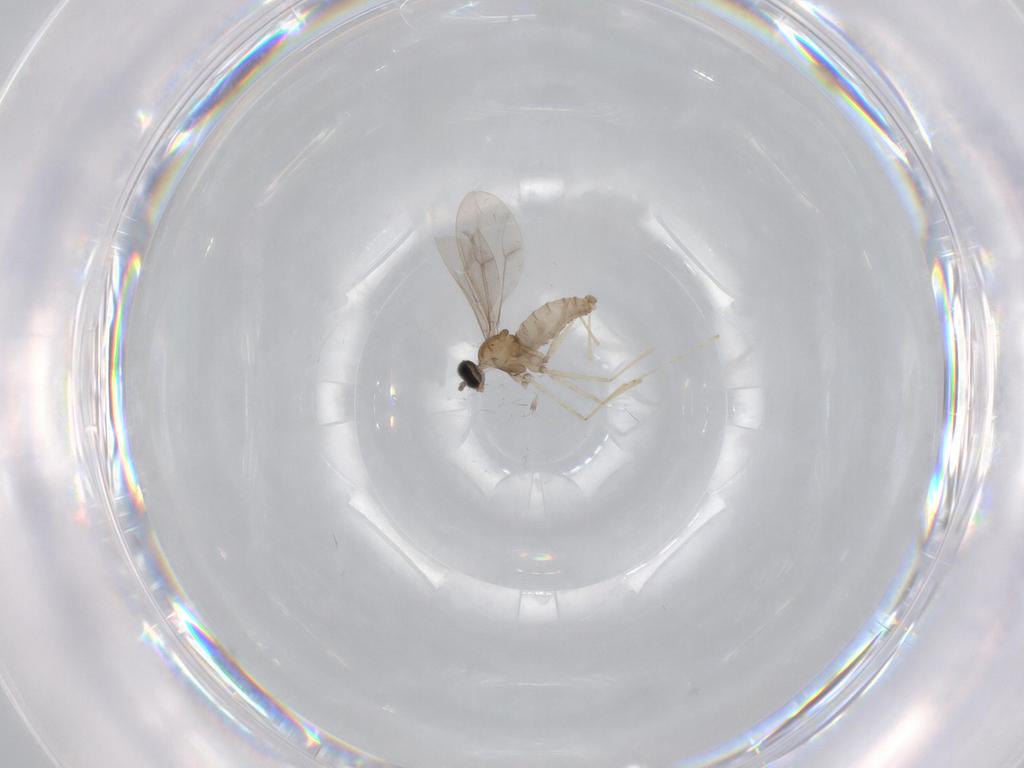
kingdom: Animalia
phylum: Arthropoda
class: Insecta
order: Diptera
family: Cecidomyiidae
